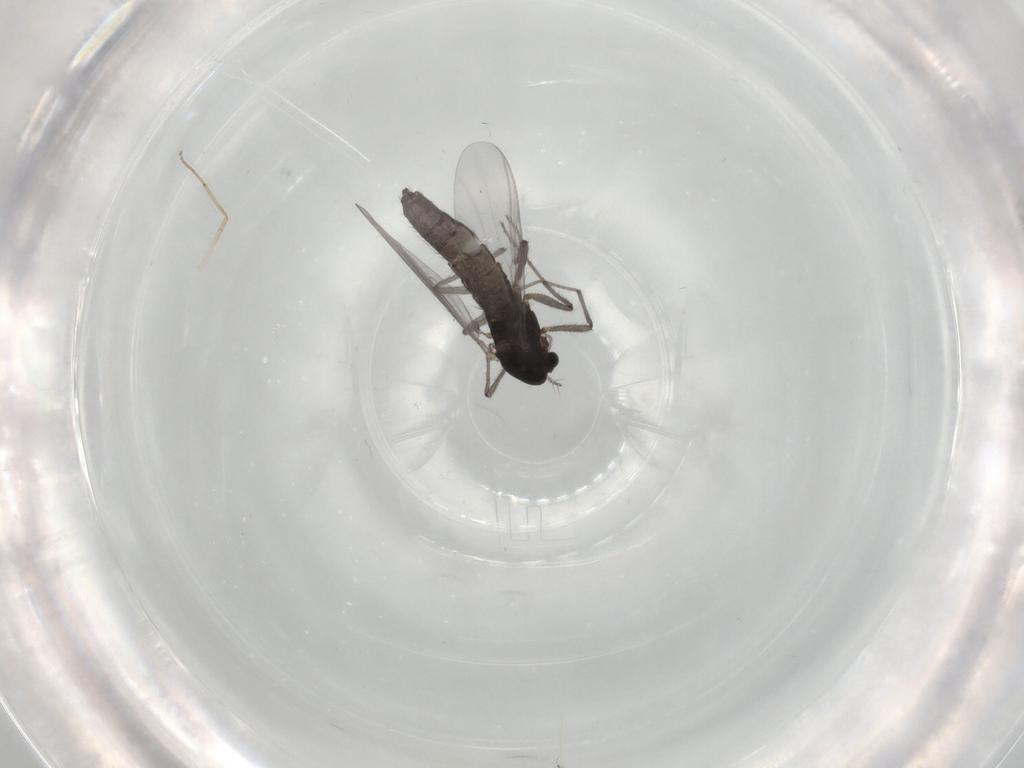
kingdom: Animalia
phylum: Arthropoda
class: Insecta
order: Diptera
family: Chironomidae
